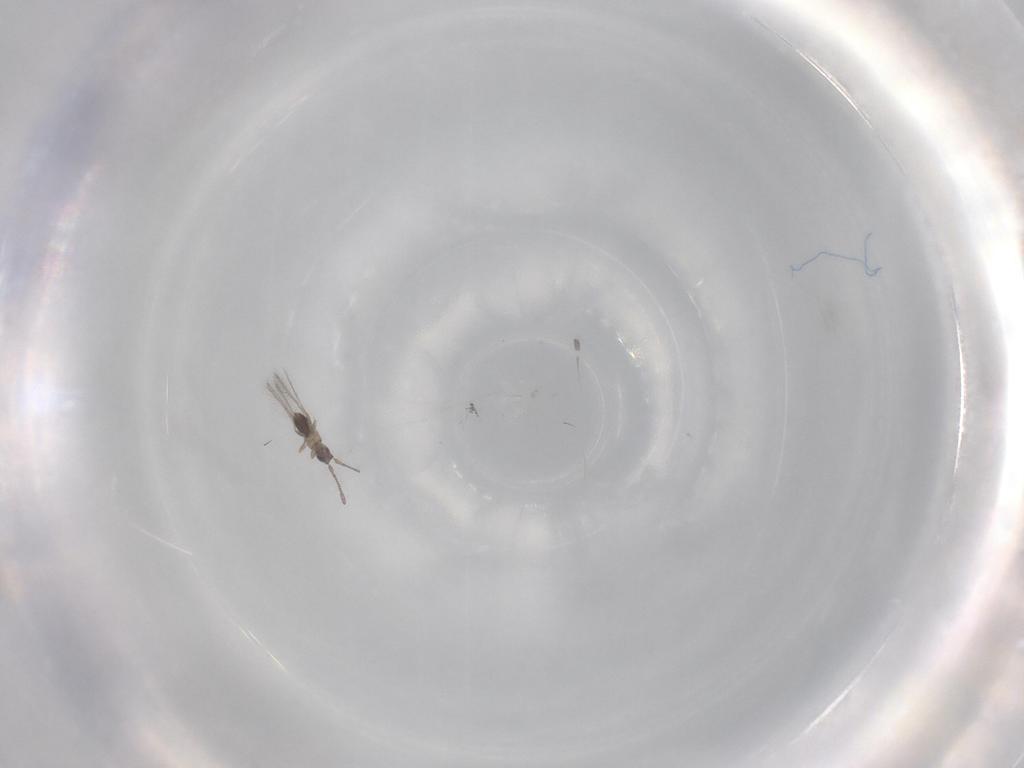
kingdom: Animalia
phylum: Arthropoda
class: Insecta
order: Hymenoptera
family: Mymaridae
